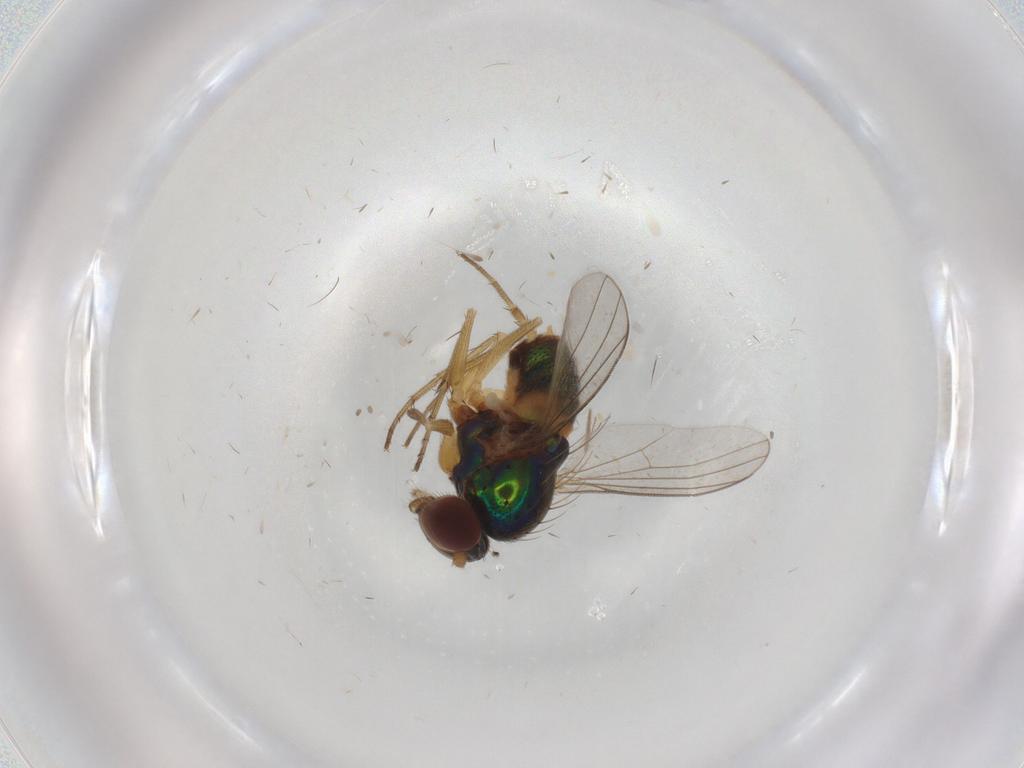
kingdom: Animalia
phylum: Arthropoda
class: Insecta
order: Diptera
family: Dolichopodidae
